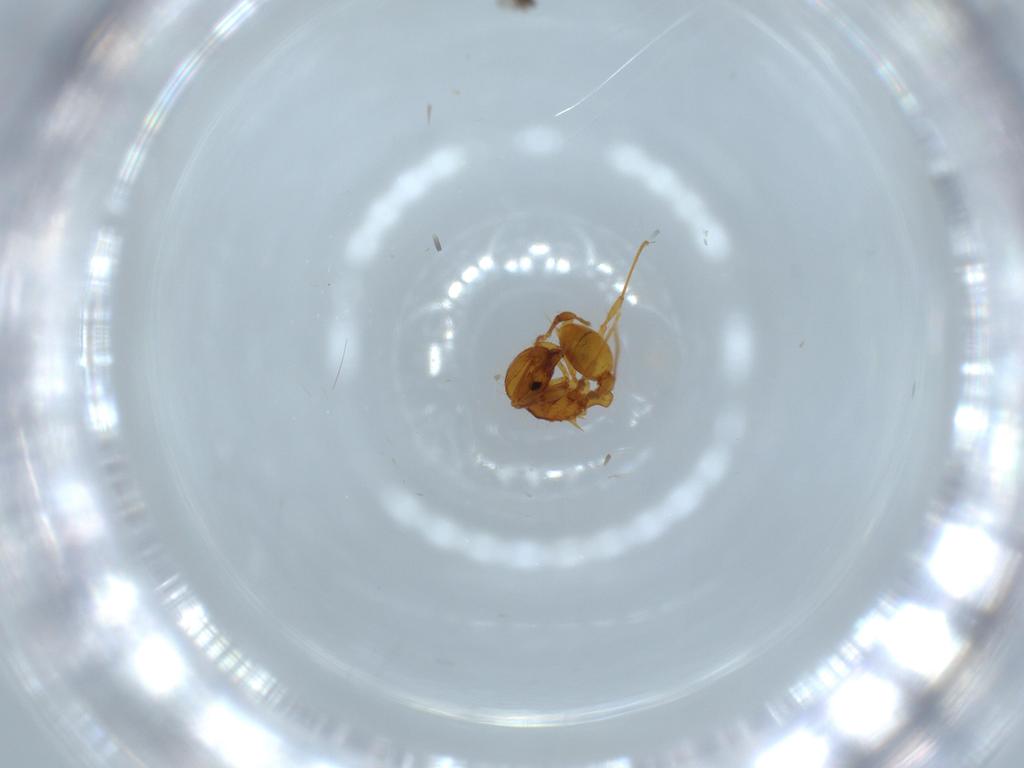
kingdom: Animalia
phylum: Arthropoda
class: Insecta
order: Hymenoptera
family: Formicidae
